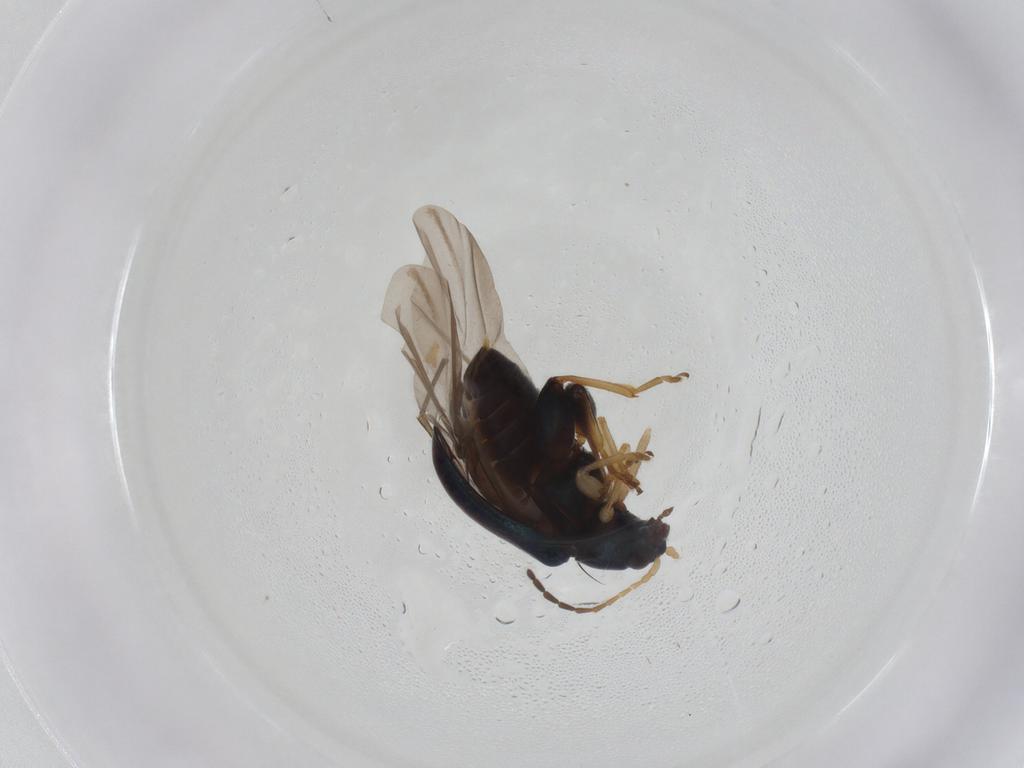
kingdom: Animalia
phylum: Arthropoda
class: Insecta
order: Coleoptera
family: Chrysomelidae
